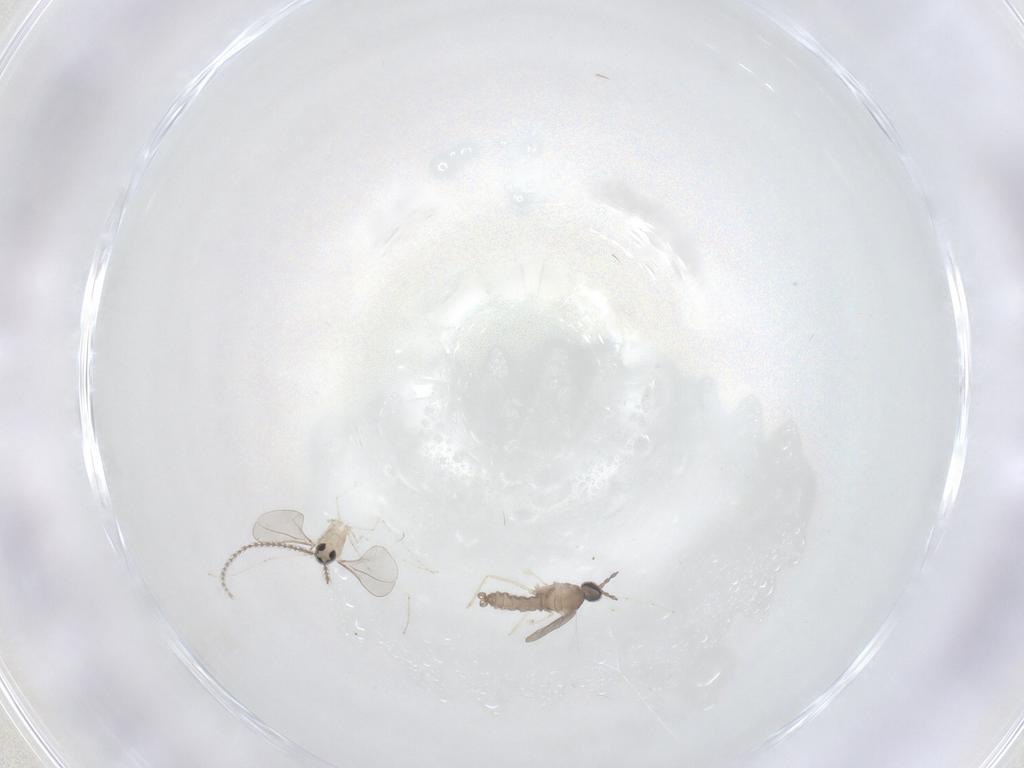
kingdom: Animalia
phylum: Arthropoda
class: Insecta
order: Diptera
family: Cecidomyiidae
